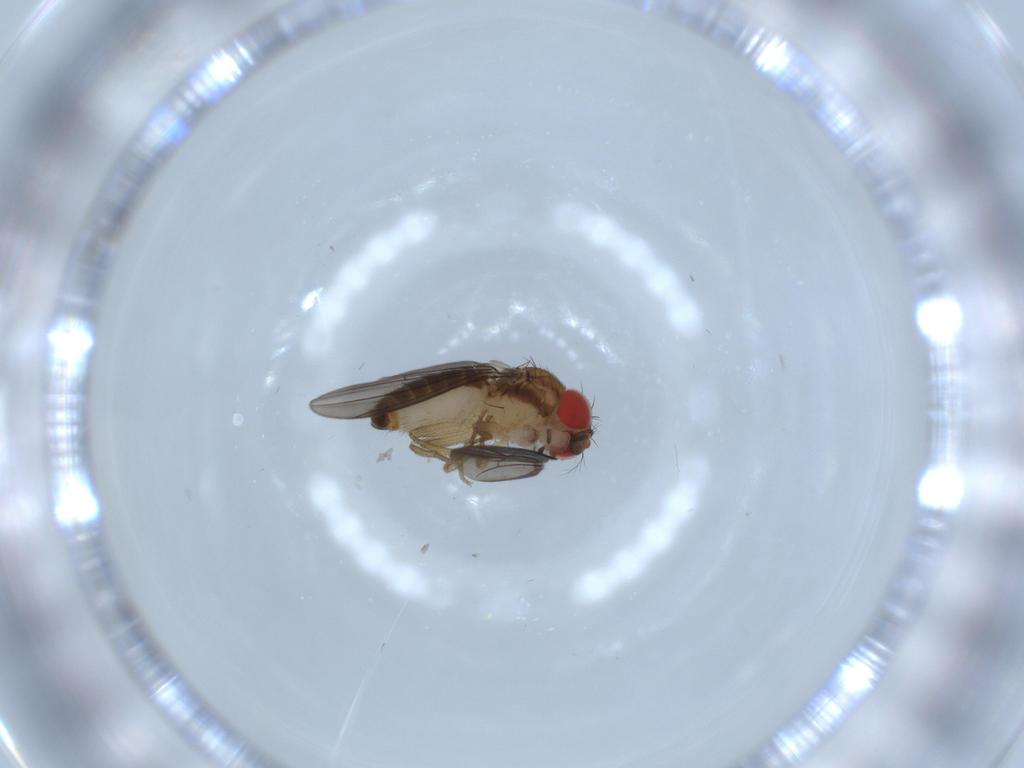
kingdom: Animalia
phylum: Arthropoda
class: Insecta
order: Diptera
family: Drosophilidae
